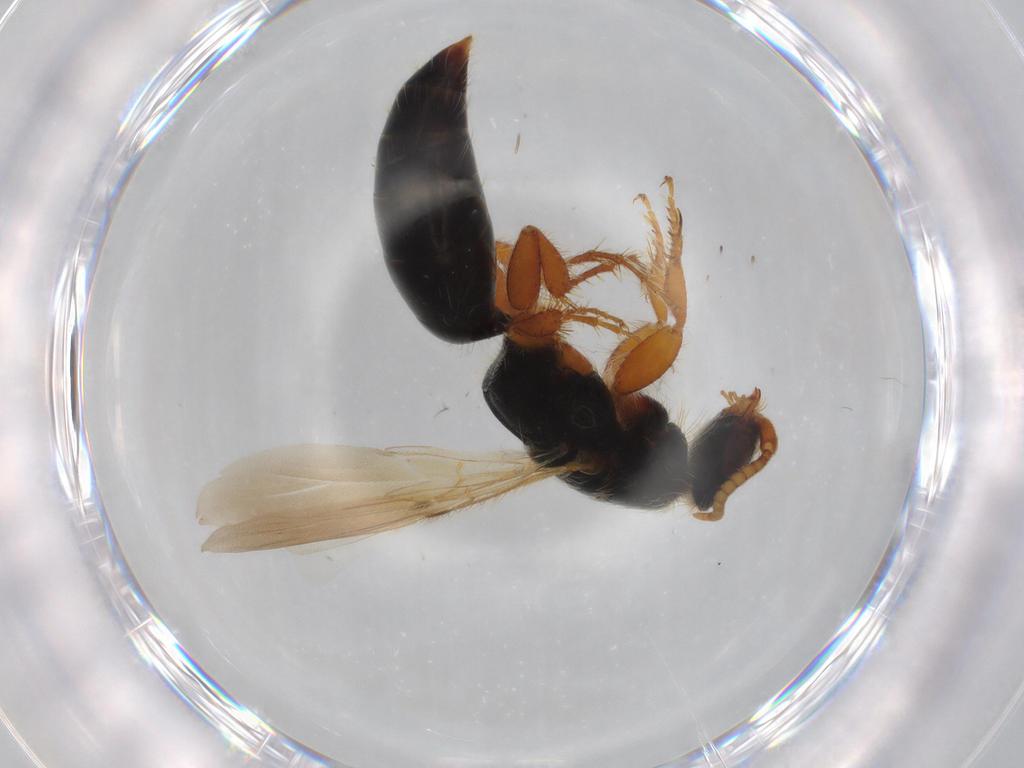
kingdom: Animalia
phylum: Arthropoda
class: Insecta
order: Hymenoptera
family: Bethylidae
